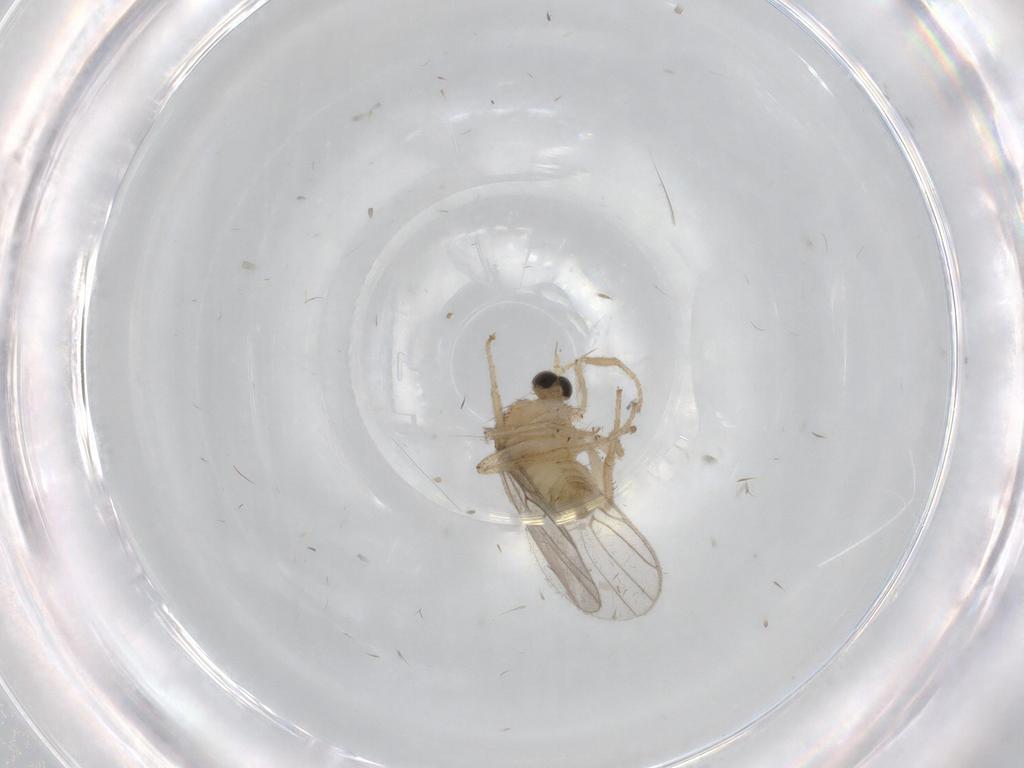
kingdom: Animalia
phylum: Arthropoda
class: Insecta
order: Diptera
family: Hybotidae
